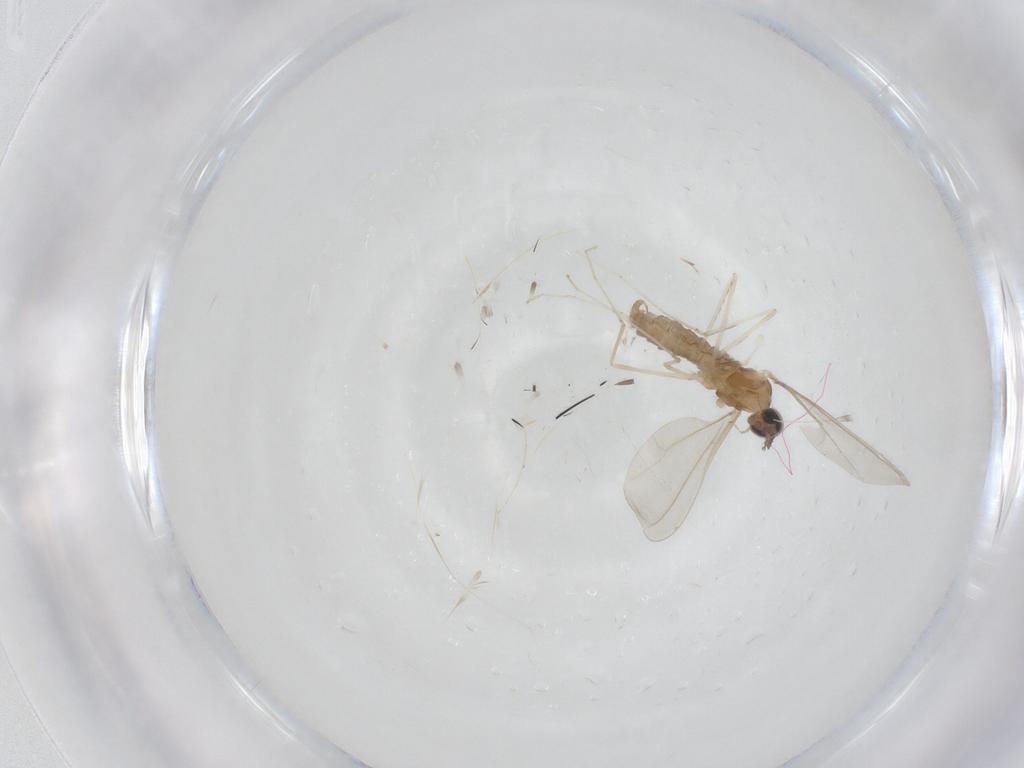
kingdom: Animalia
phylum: Arthropoda
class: Insecta
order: Diptera
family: Cecidomyiidae
